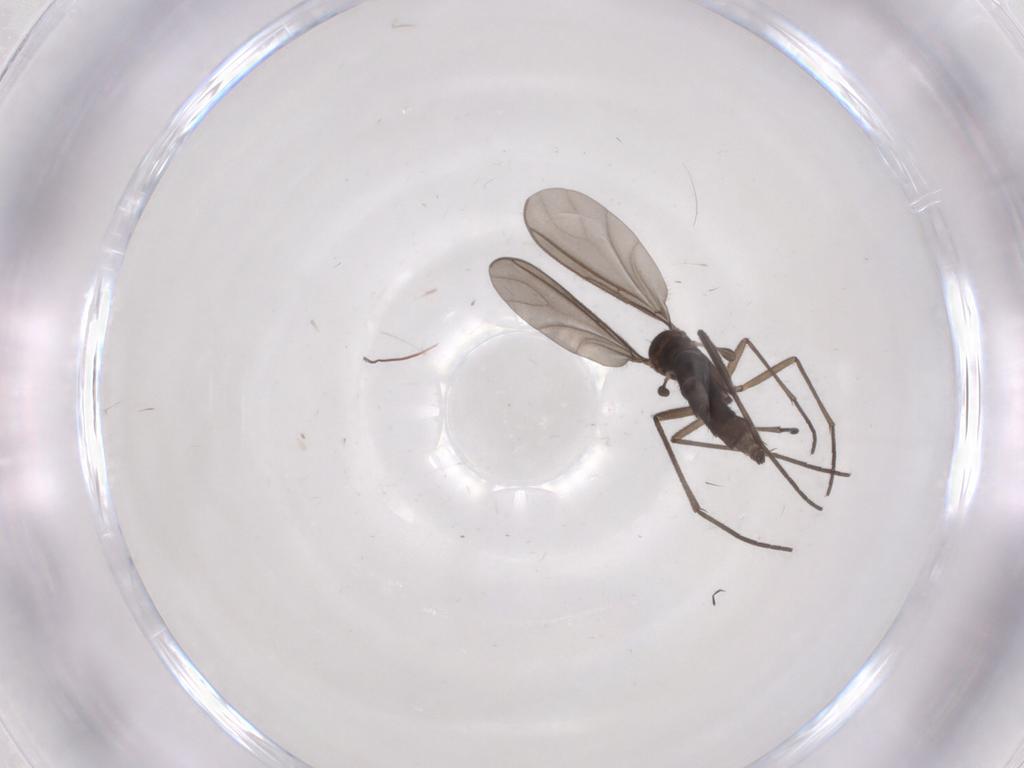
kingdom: Animalia
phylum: Arthropoda
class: Insecta
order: Diptera
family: Sciaridae
